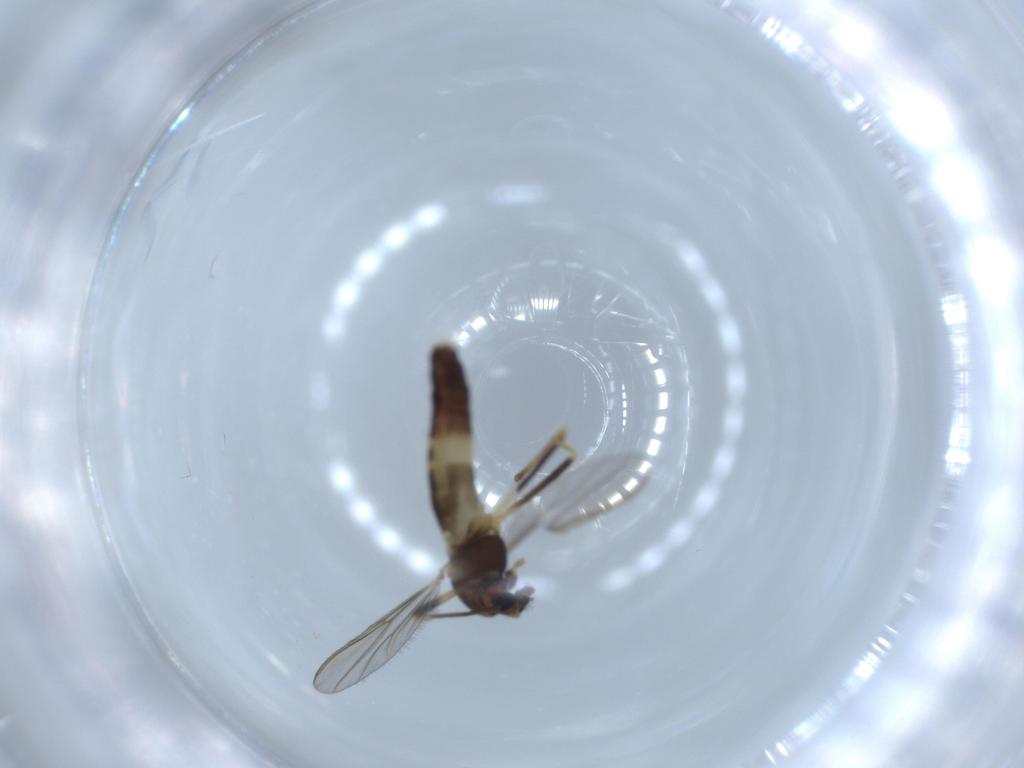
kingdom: Animalia
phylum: Arthropoda
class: Insecta
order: Diptera
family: Chironomidae
